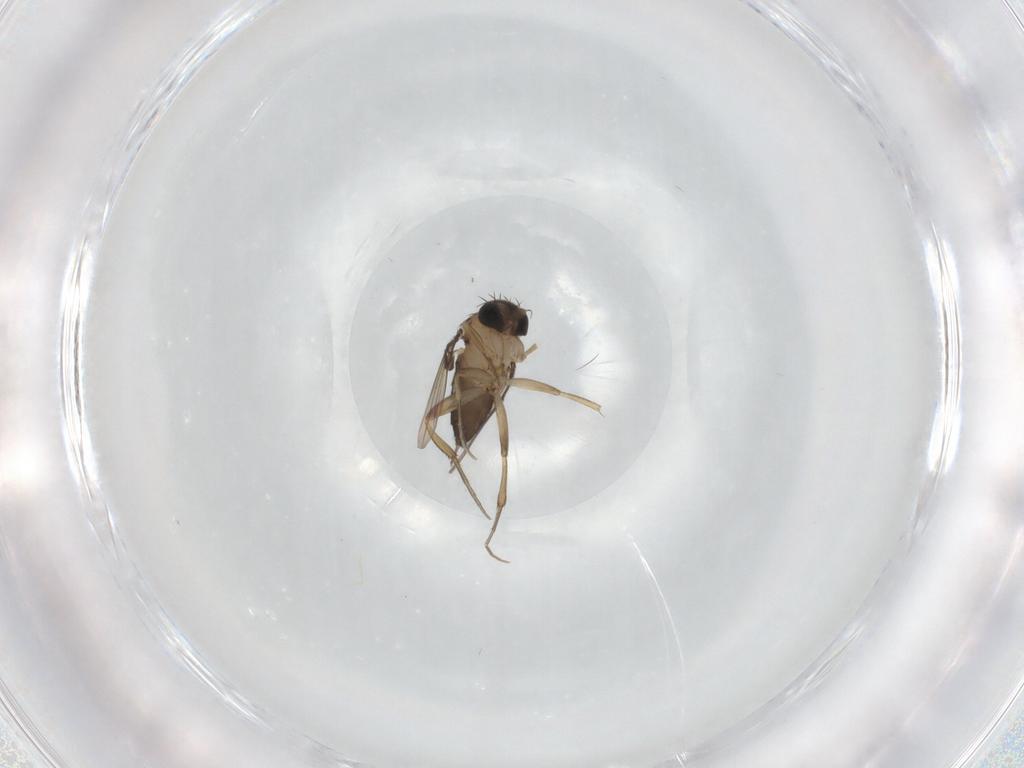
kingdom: Animalia
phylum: Arthropoda
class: Insecta
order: Diptera
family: Phoridae
